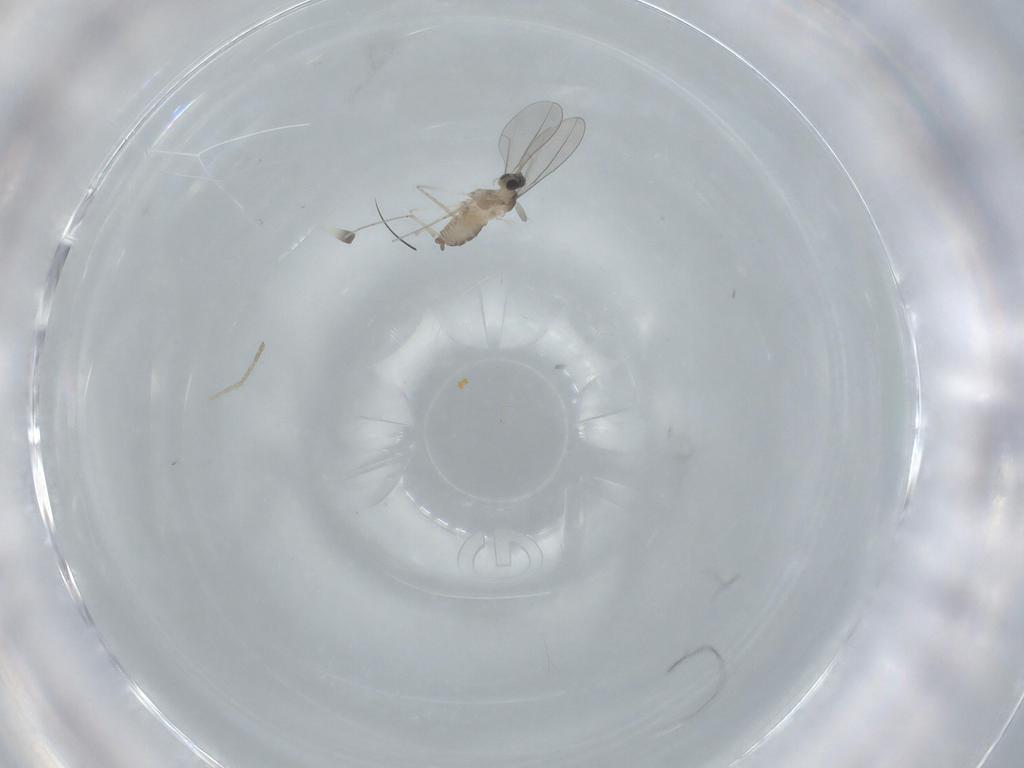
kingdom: Animalia
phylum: Arthropoda
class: Insecta
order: Diptera
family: Cecidomyiidae
